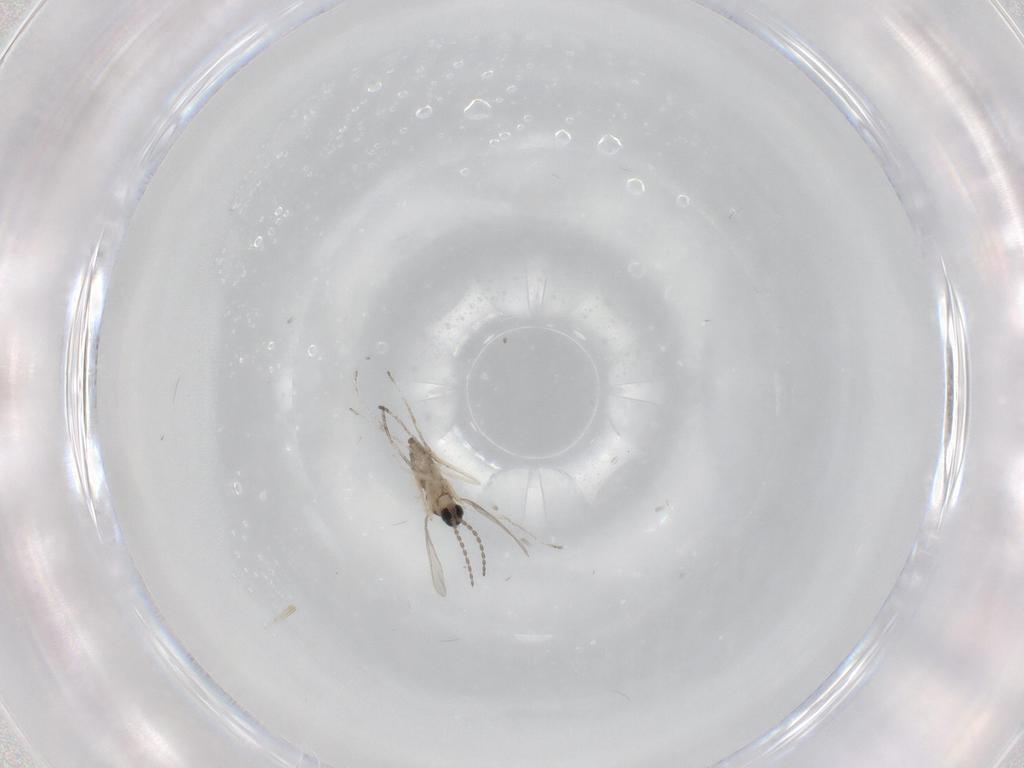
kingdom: Animalia
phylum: Arthropoda
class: Insecta
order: Diptera
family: Cecidomyiidae
